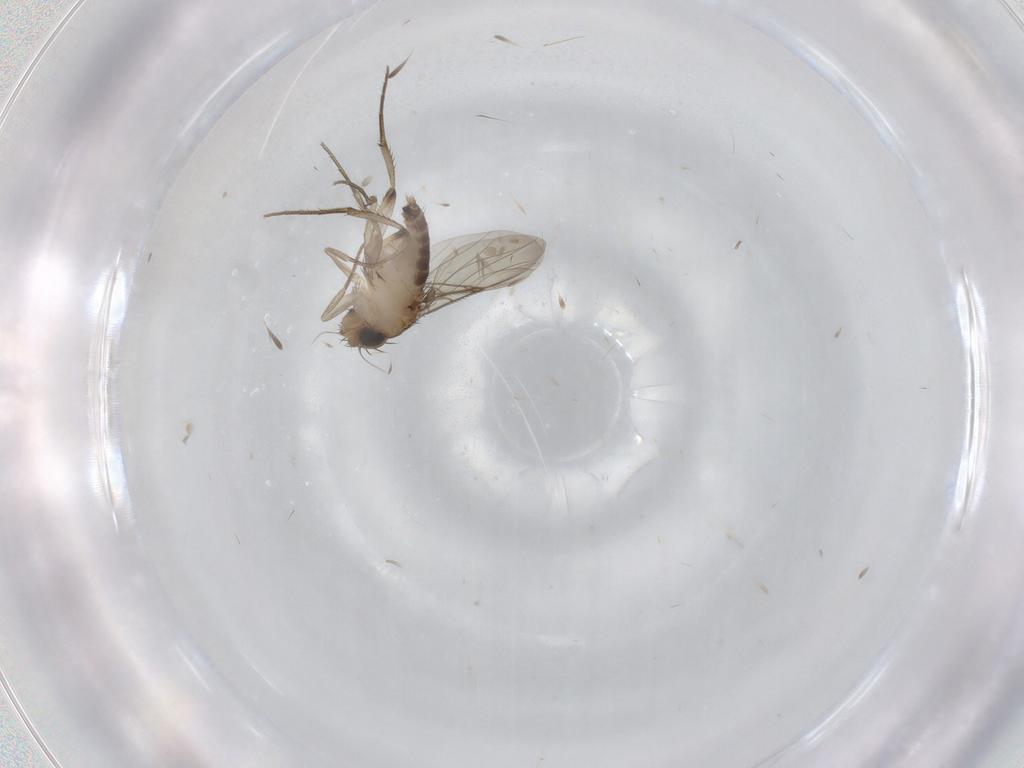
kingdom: Animalia
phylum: Arthropoda
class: Insecta
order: Diptera
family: Phoridae
